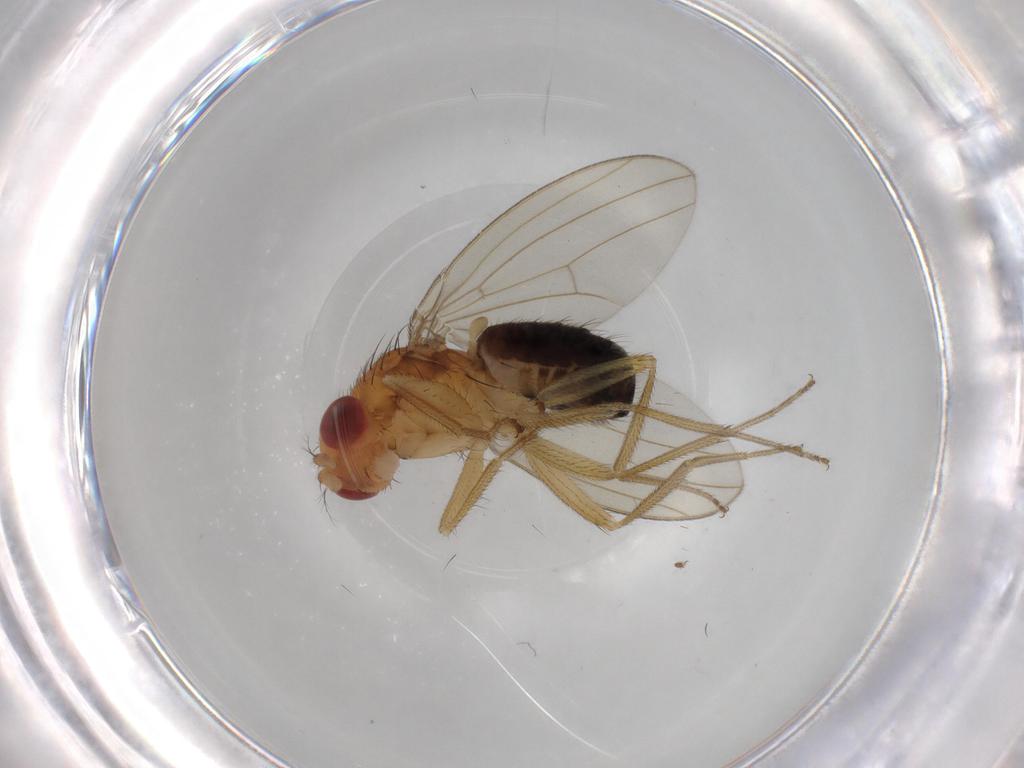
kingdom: Animalia
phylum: Arthropoda
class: Insecta
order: Diptera
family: Drosophilidae
